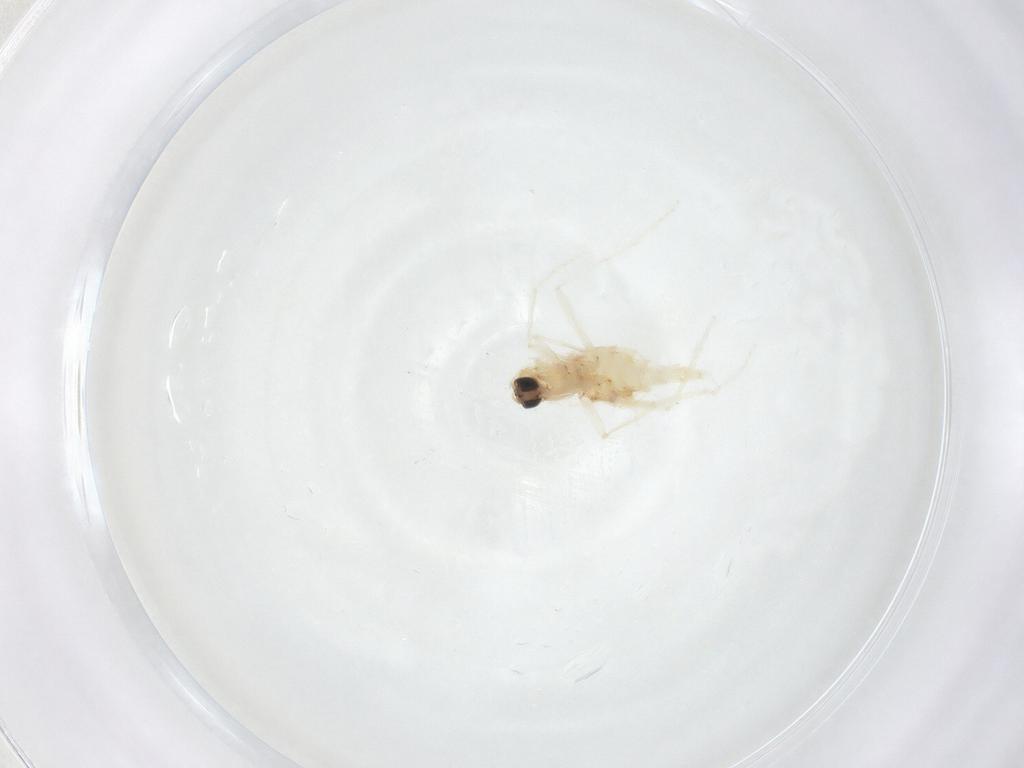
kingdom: Animalia
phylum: Arthropoda
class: Insecta
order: Diptera
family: Sciaridae
